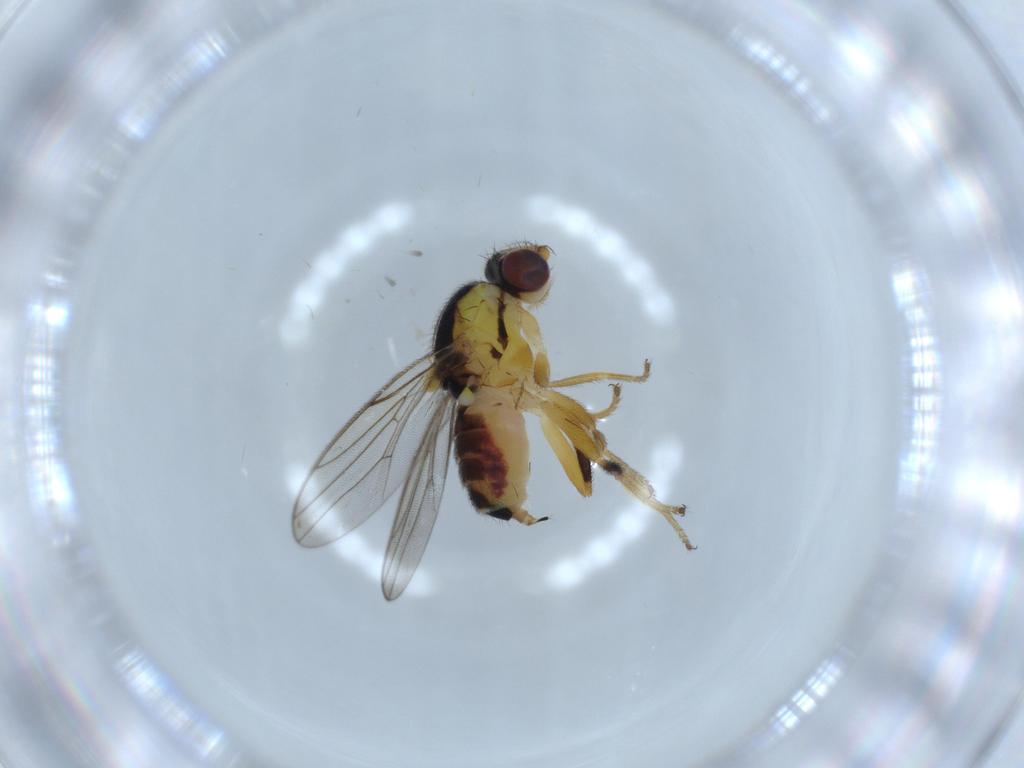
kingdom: Animalia
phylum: Arthropoda
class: Insecta
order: Diptera
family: Chloropidae
